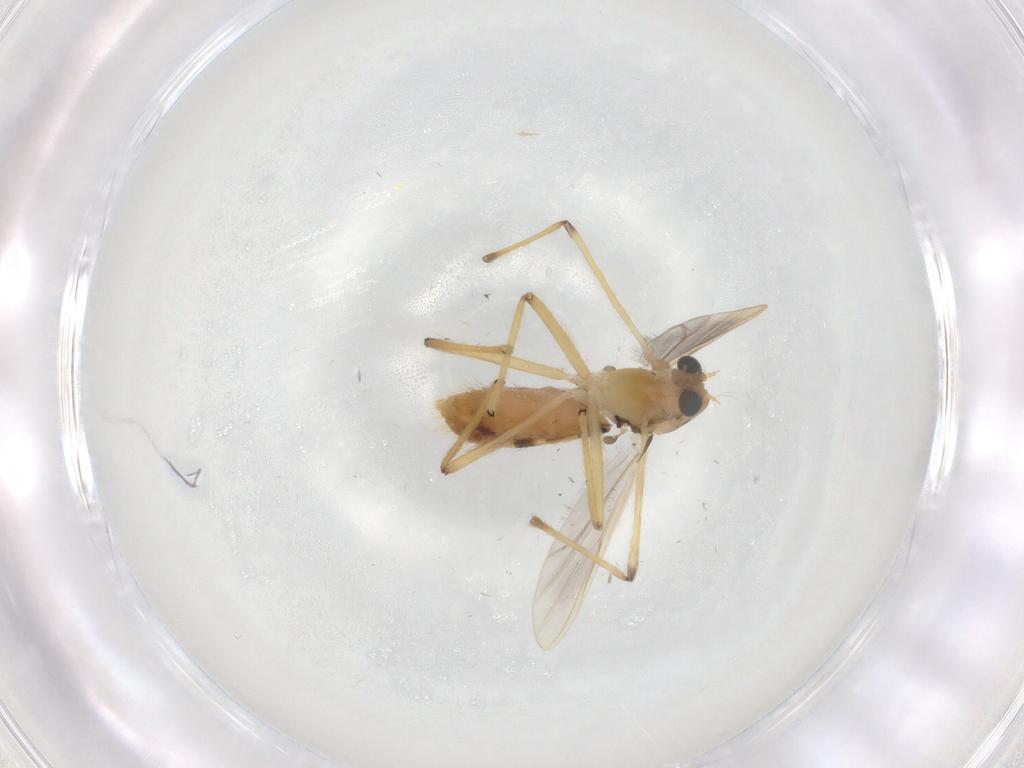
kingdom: Animalia
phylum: Arthropoda
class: Insecta
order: Diptera
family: Chironomidae
